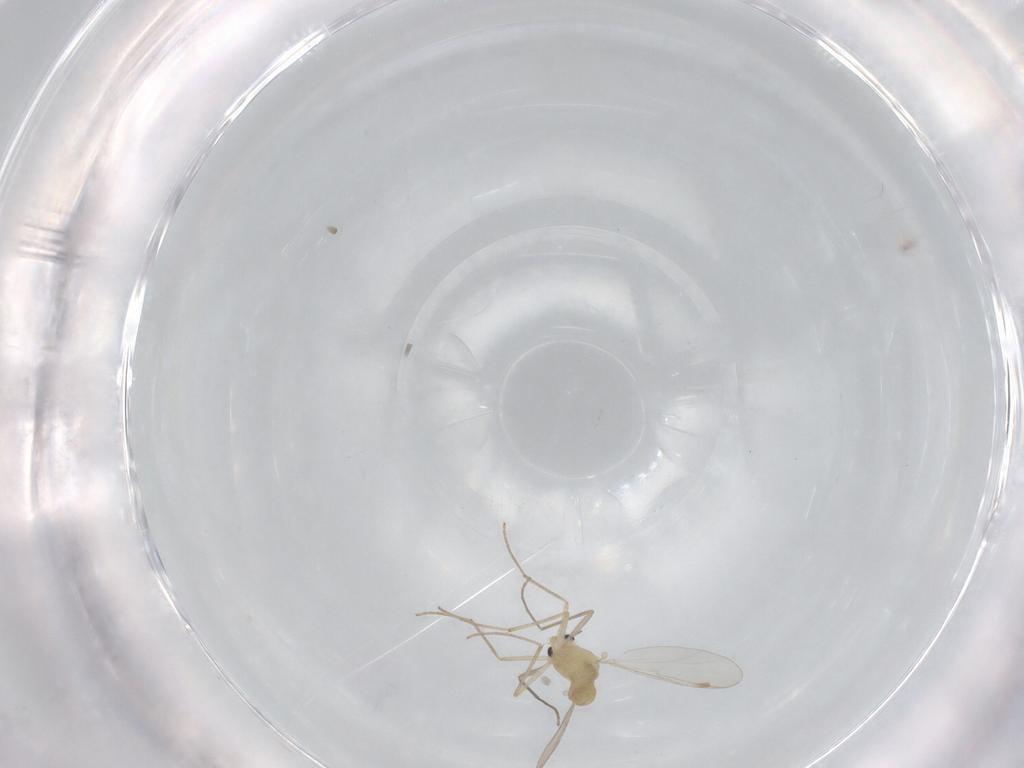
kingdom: Animalia
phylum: Arthropoda
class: Insecta
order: Diptera
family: Chironomidae
